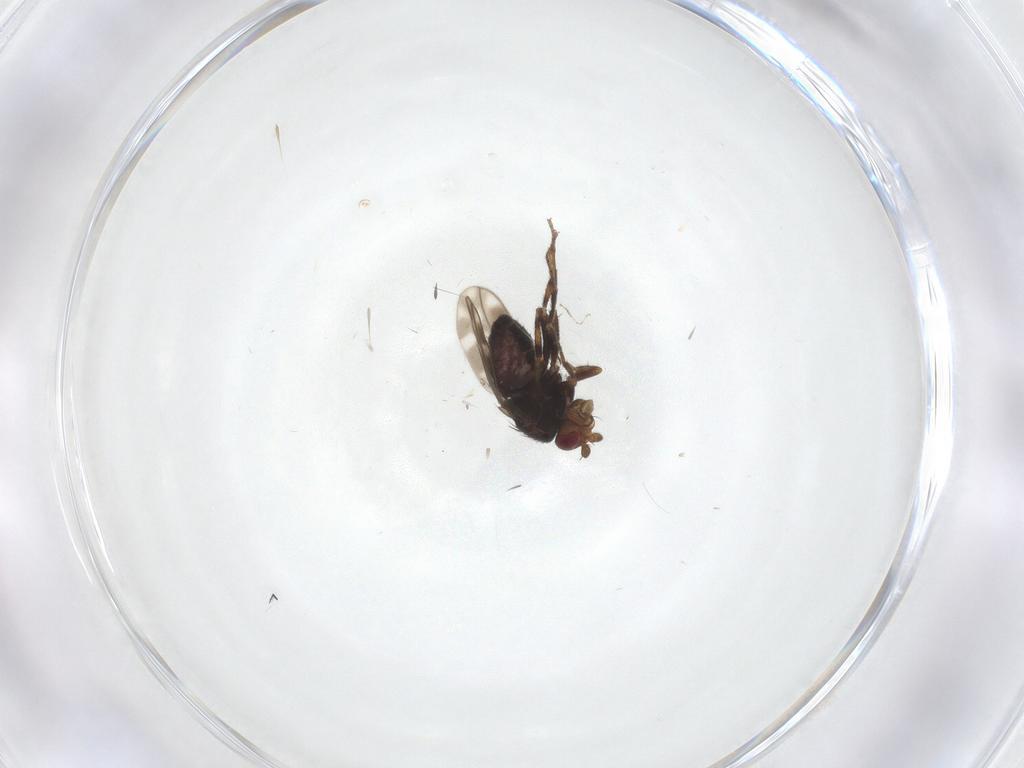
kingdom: Animalia
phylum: Arthropoda
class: Insecta
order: Diptera
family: Sphaeroceridae
